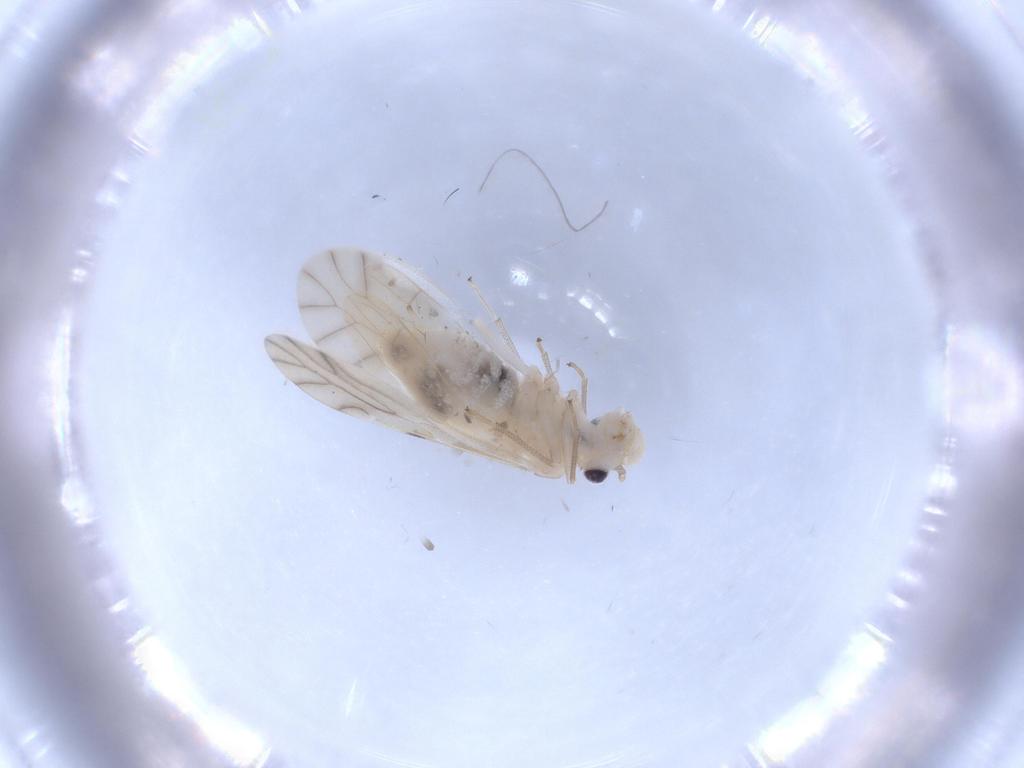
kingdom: Animalia
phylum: Arthropoda
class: Insecta
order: Psocodea
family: Caeciliusidae
